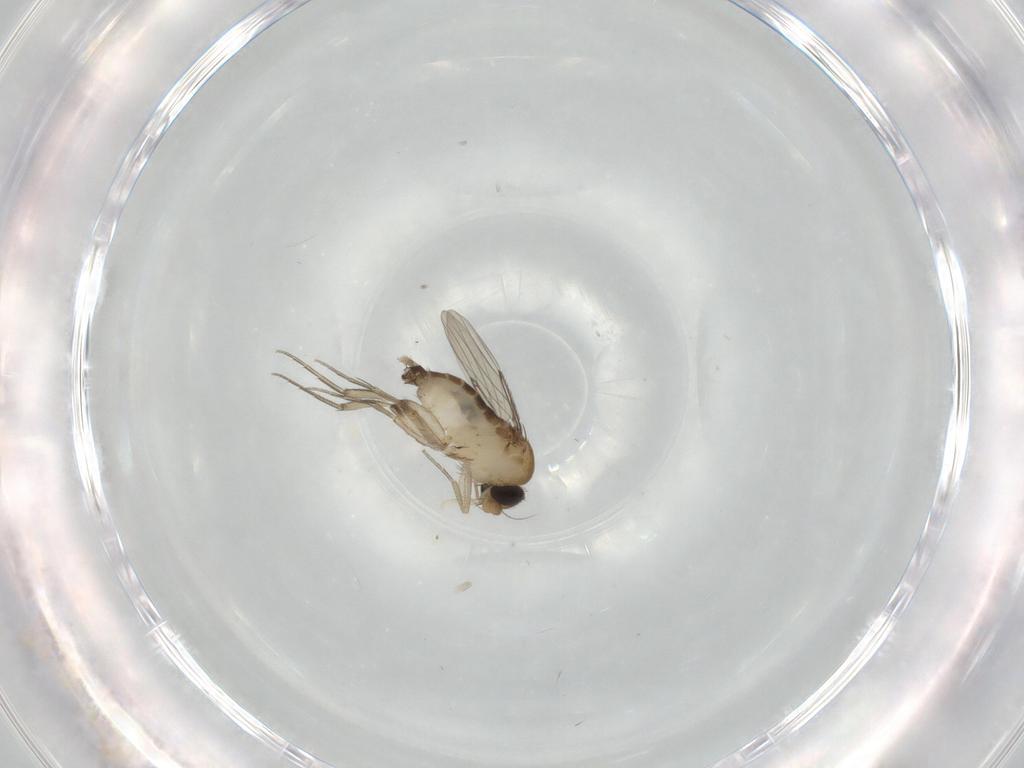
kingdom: Animalia
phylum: Arthropoda
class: Insecta
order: Diptera
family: Phoridae
